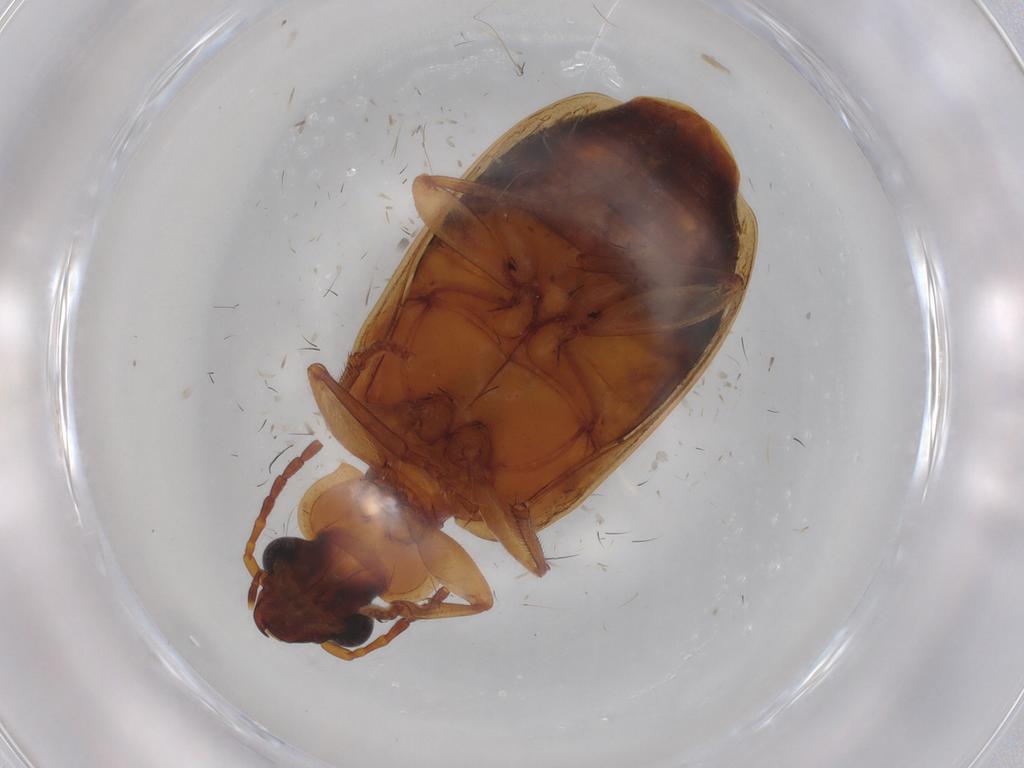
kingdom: Animalia
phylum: Arthropoda
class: Insecta
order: Coleoptera
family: Carabidae
